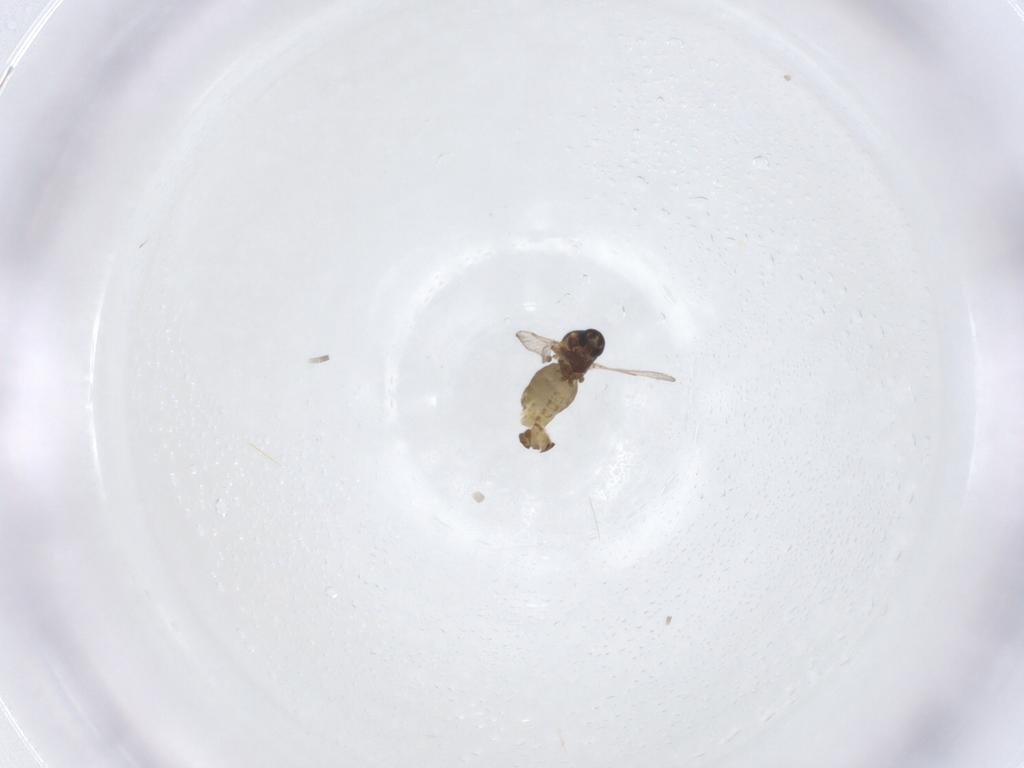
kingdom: Animalia
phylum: Arthropoda
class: Insecta
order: Diptera
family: Ceratopogonidae
